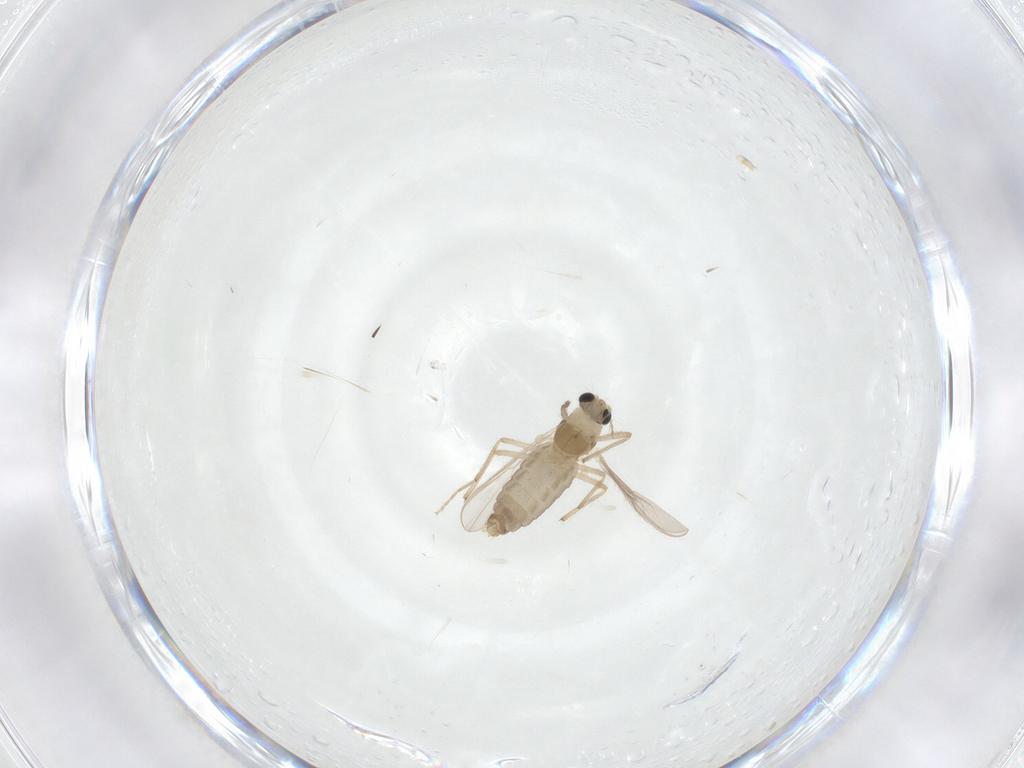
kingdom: Animalia
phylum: Arthropoda
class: Insecta
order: Diptera
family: Chironomidae
